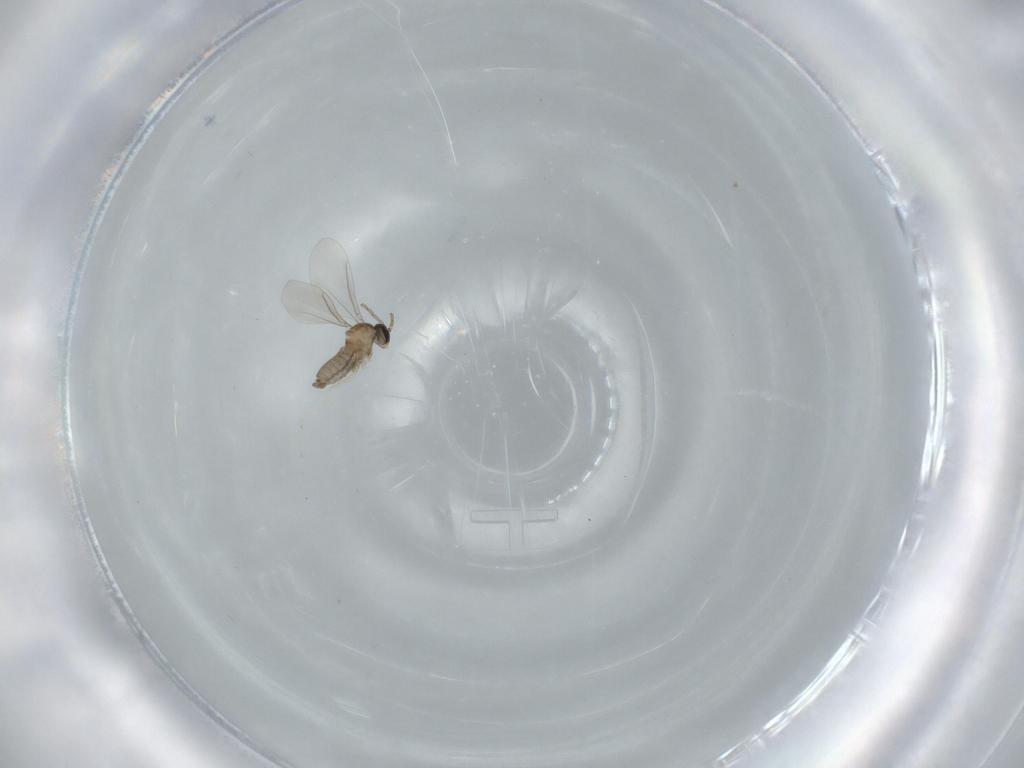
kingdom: Animalia
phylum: Arthropoda
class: Insecta
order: Diptera
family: Cecidomyiidae
